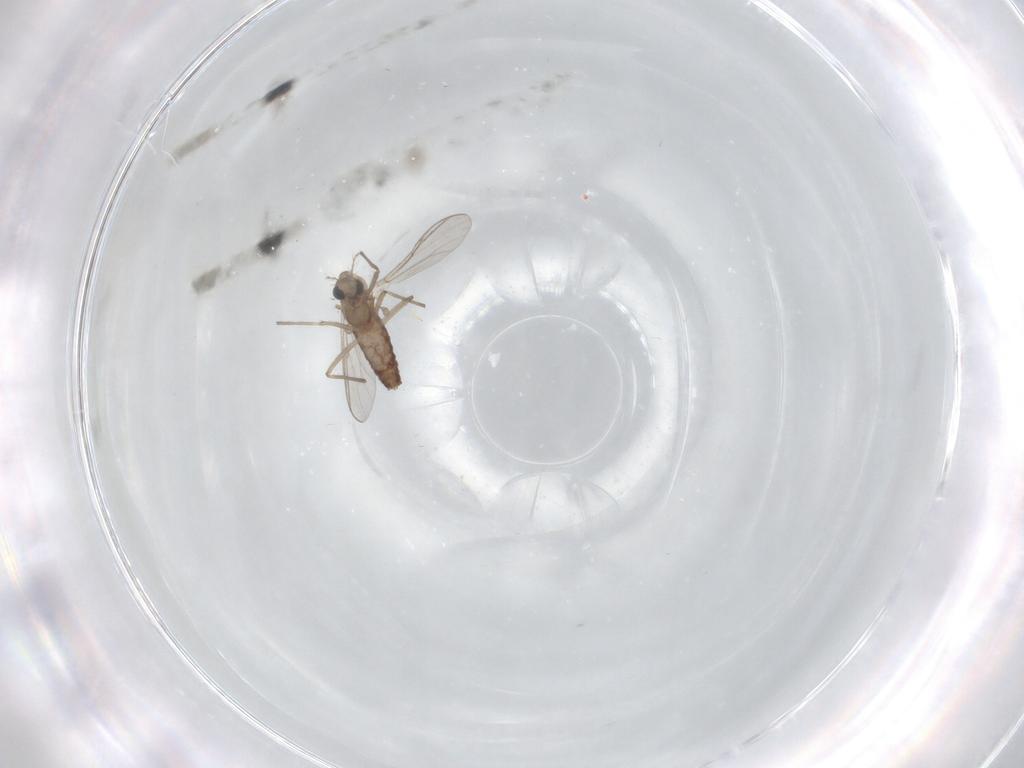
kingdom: Animalia
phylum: Arthropoda
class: Insecta
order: Diptera
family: Chironomidae
